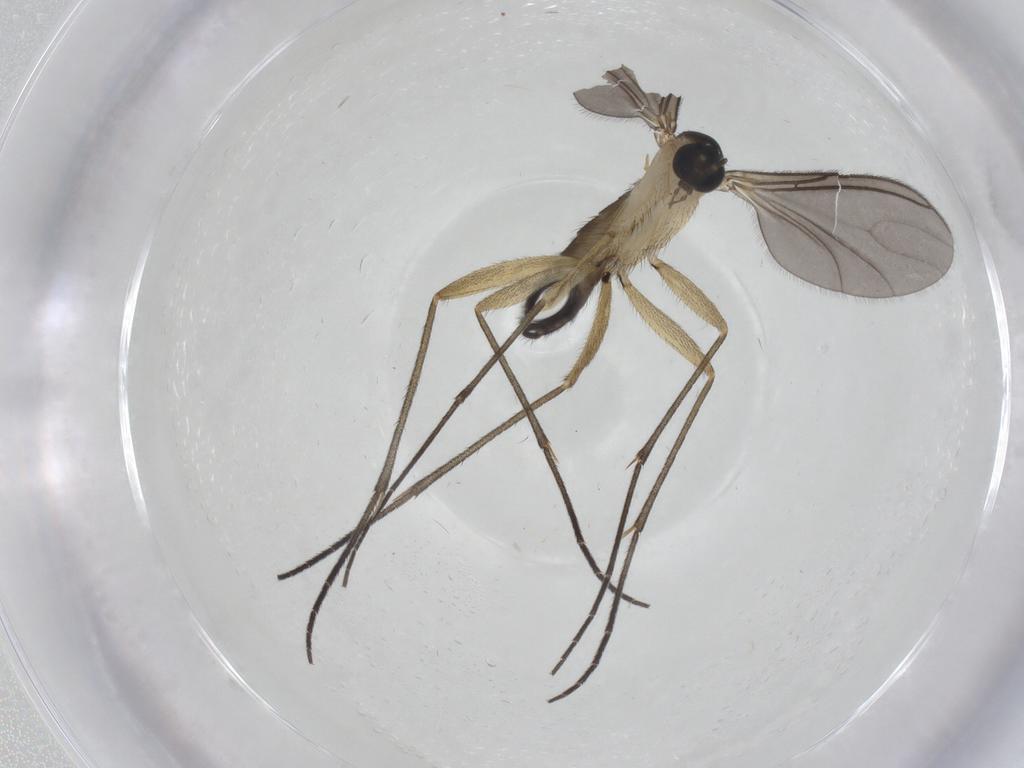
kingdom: Animalia
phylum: Arthropoda
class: Insecta
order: Diptera
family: Sciaridae
